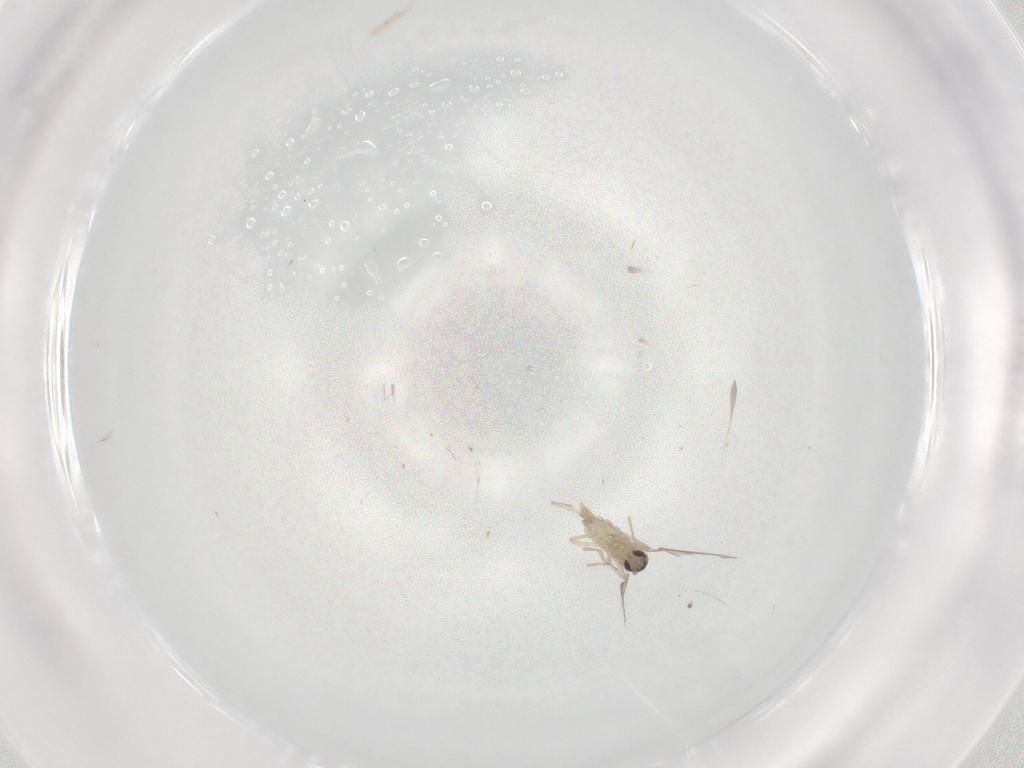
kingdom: Animalia
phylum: Arthropoda
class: Insecta
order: Diptera
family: Cecidomyiidae
